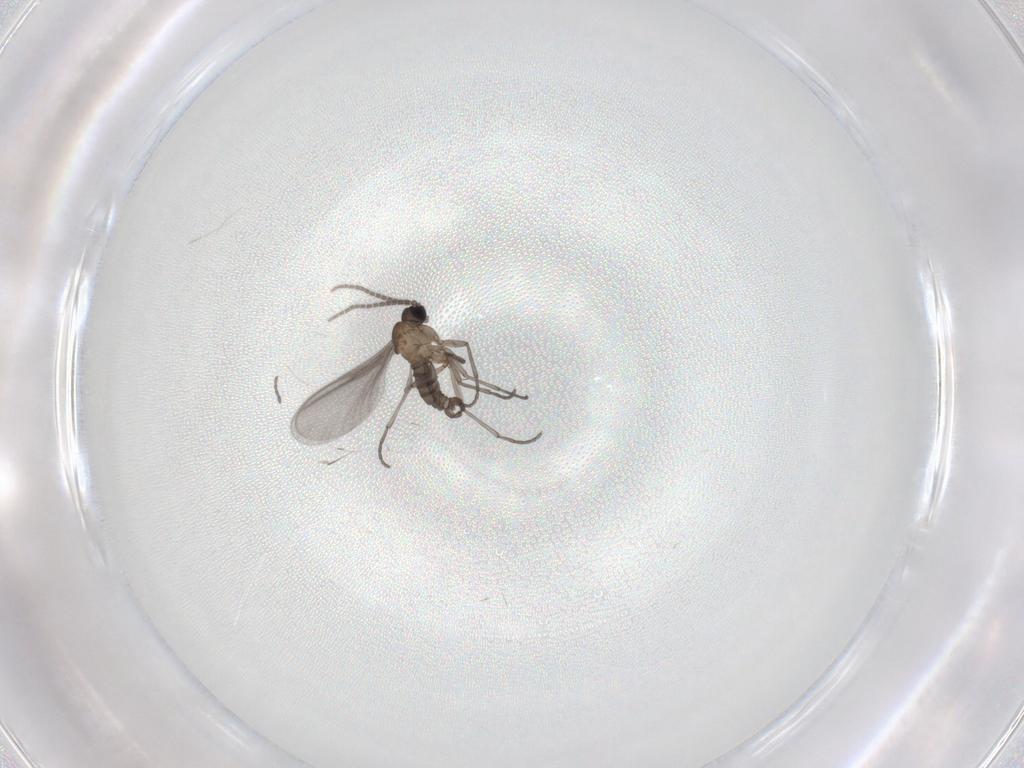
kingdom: Animalia
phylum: Arthropoda
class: Insecta
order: Diptera
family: Sciaridae
